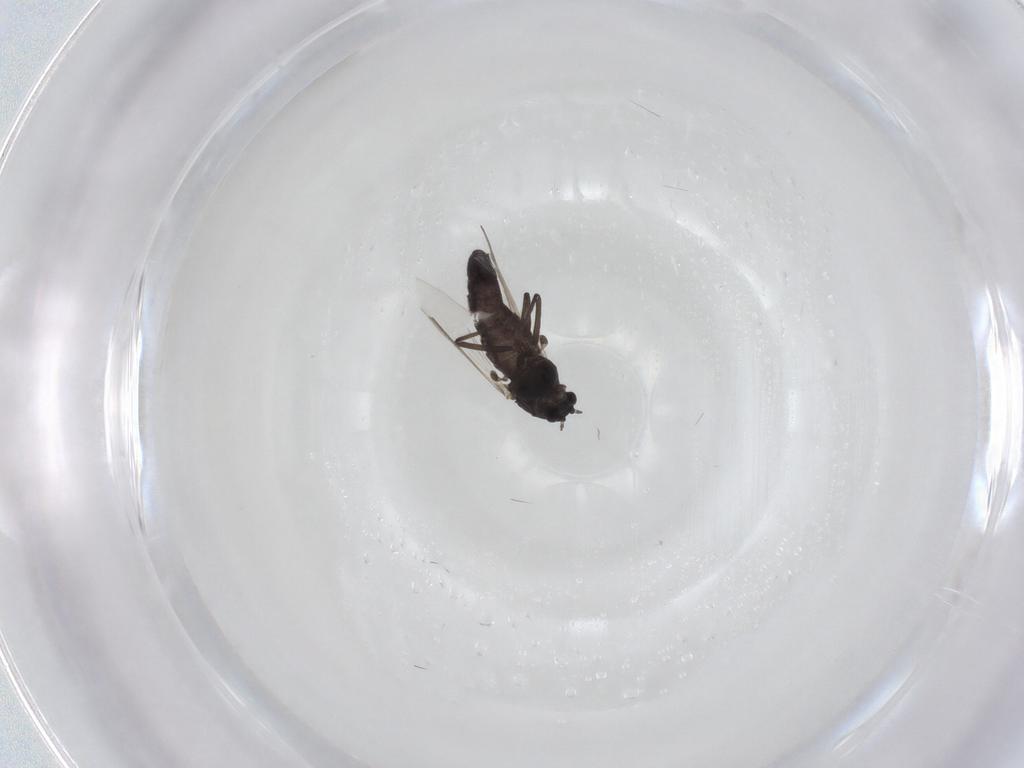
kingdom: Animalia
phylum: Arthropoda
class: Insecta
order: Diptera
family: Chironomidae
